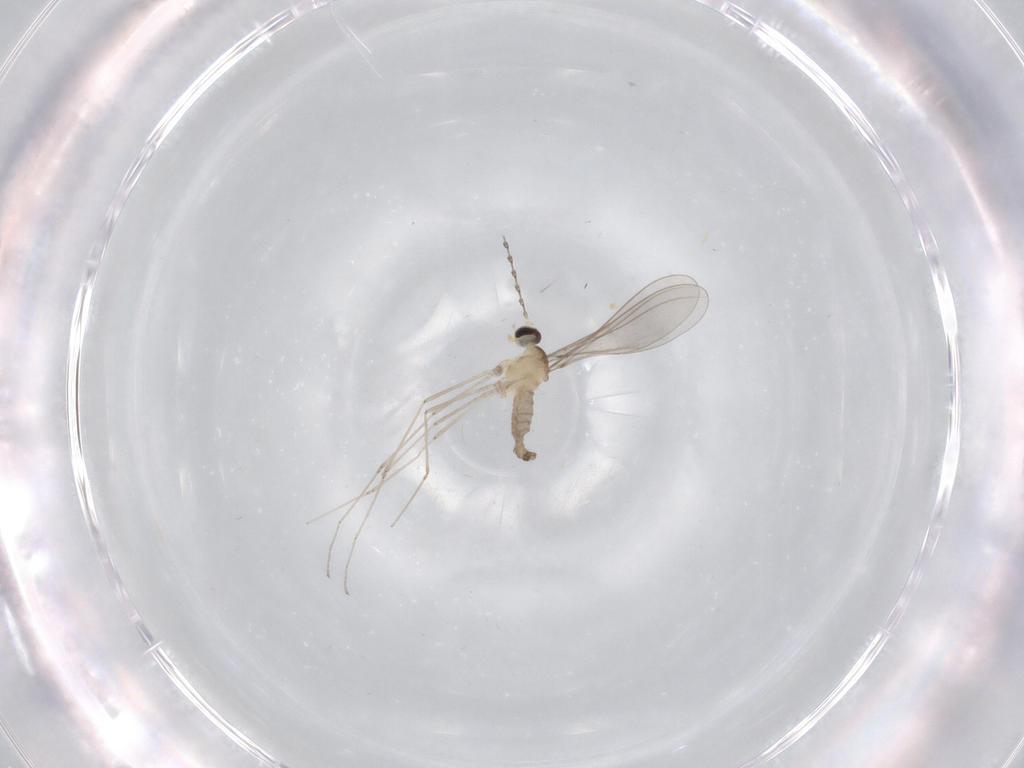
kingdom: Animalia
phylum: Arthropoda
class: Insecta
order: Diptera
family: Cecidomyiidae
